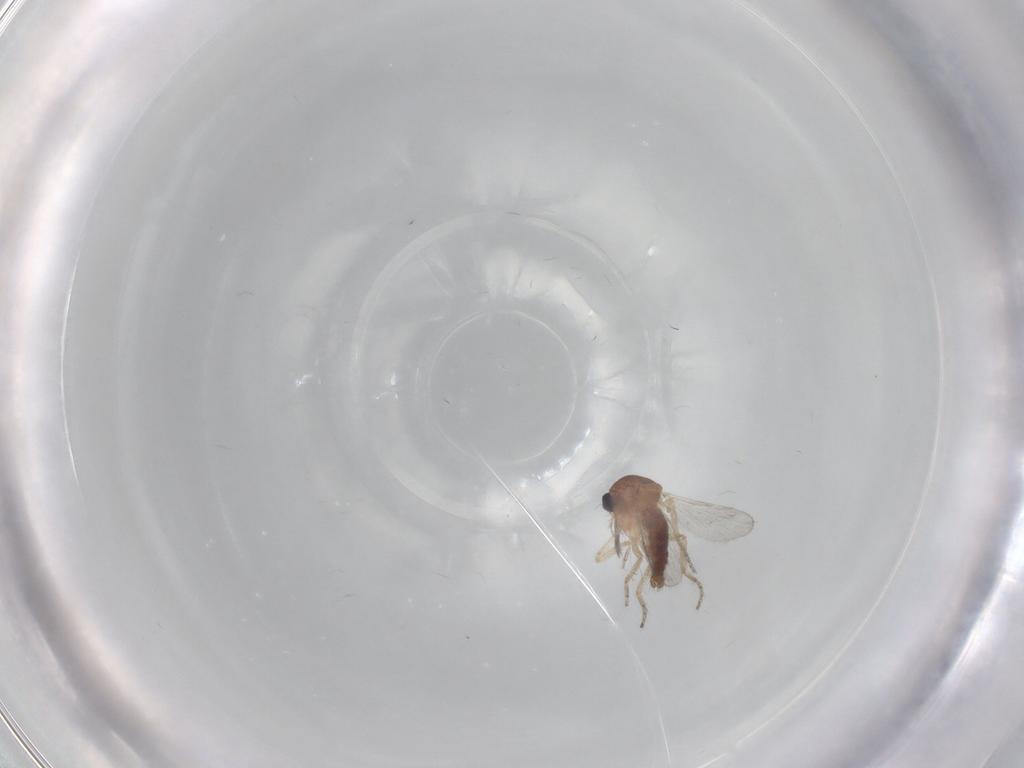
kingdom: Animalia
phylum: Arthropoda
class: Insecta
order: Diptera
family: Ceratopogonidae
